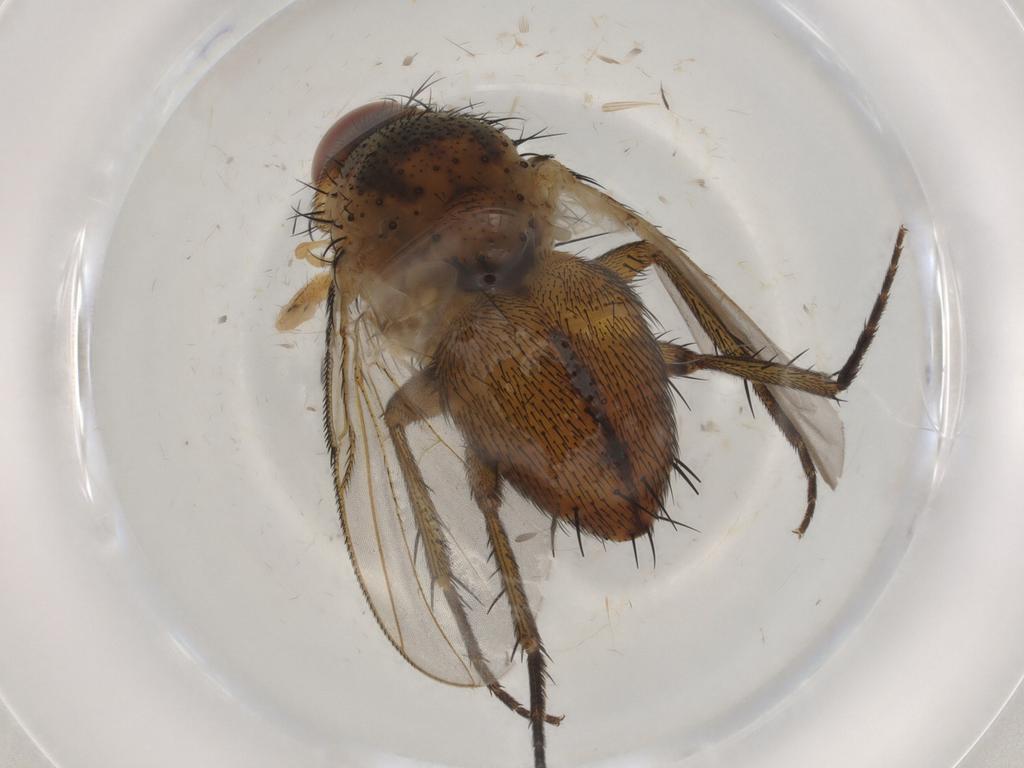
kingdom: Animalia
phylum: Arthropoda
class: Insecta
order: Diptera
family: Tachinidae
